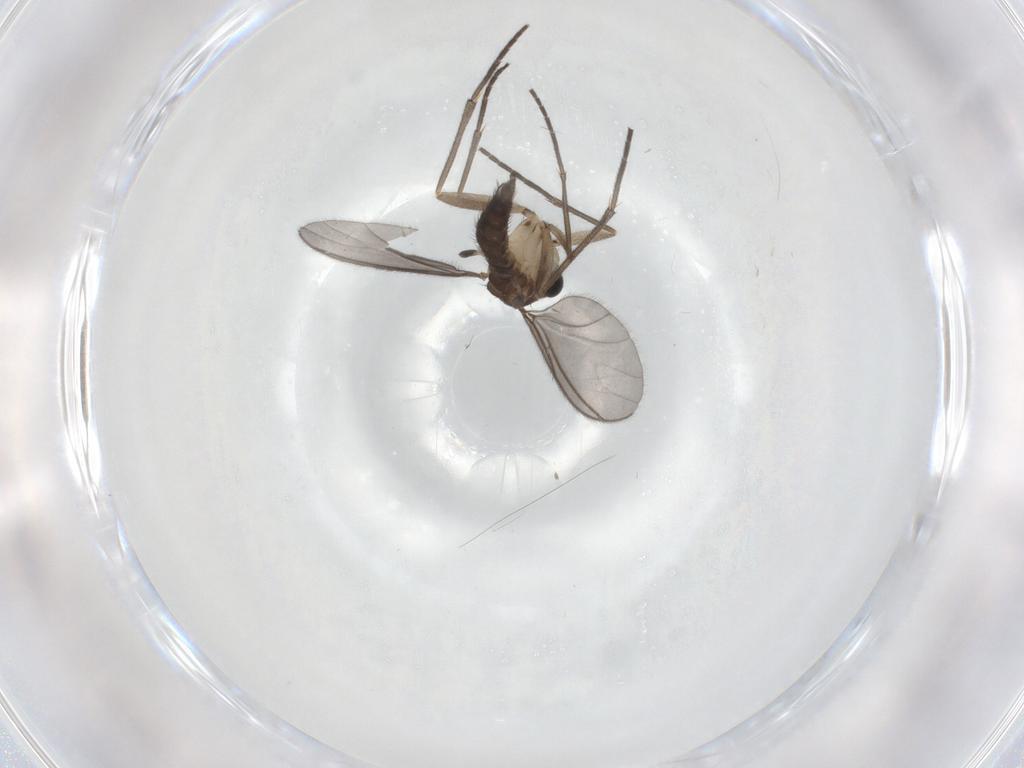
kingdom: Animalia
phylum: Arthropoda
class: Insecta
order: Diptera
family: Sciaridae
